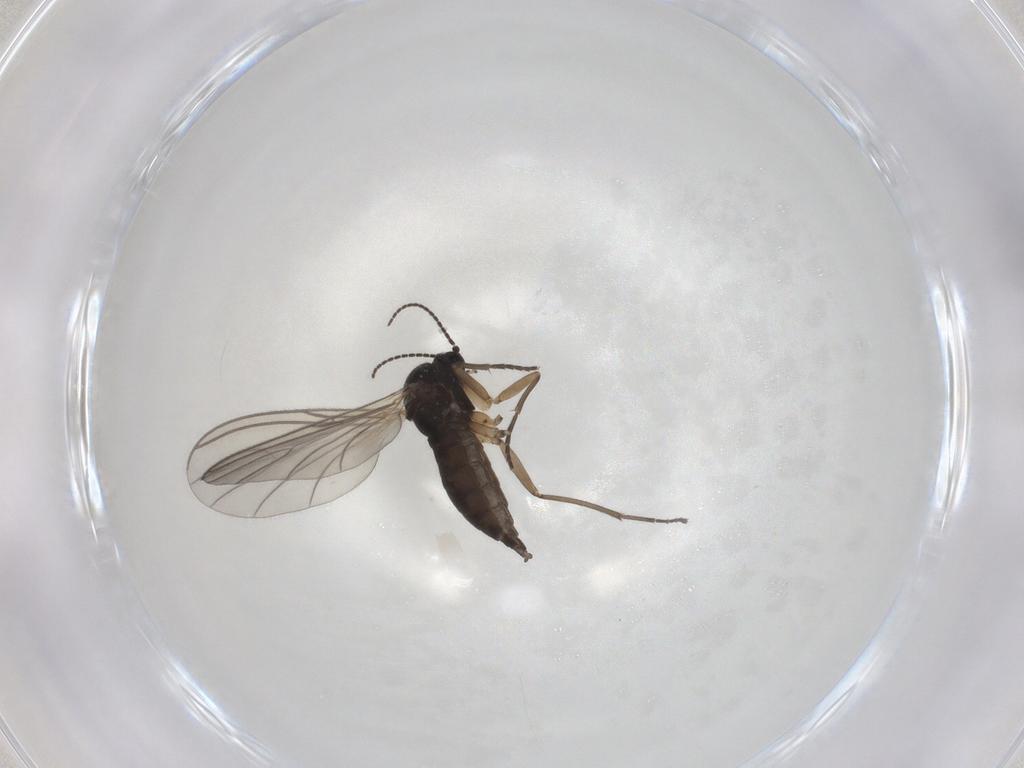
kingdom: Animalia
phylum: Arthropoda
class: Insecta
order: Diptera
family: Sciaridae
